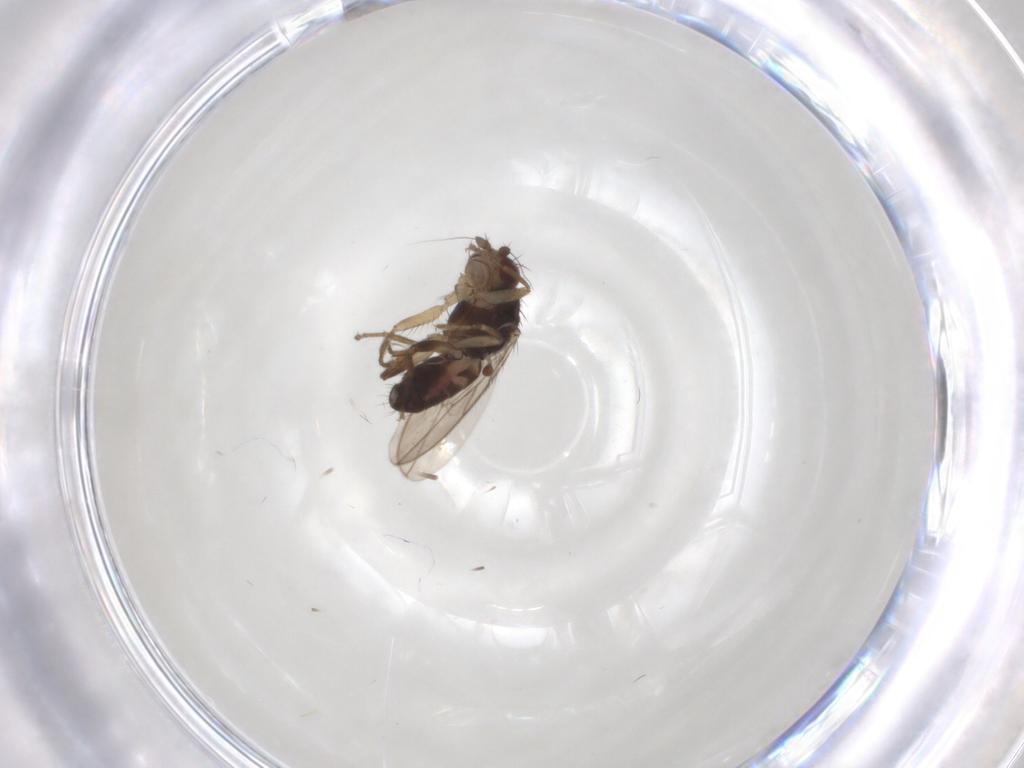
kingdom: Animalia
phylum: Arthropoda
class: Insecta
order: Diptera
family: Sphaeroceridae
